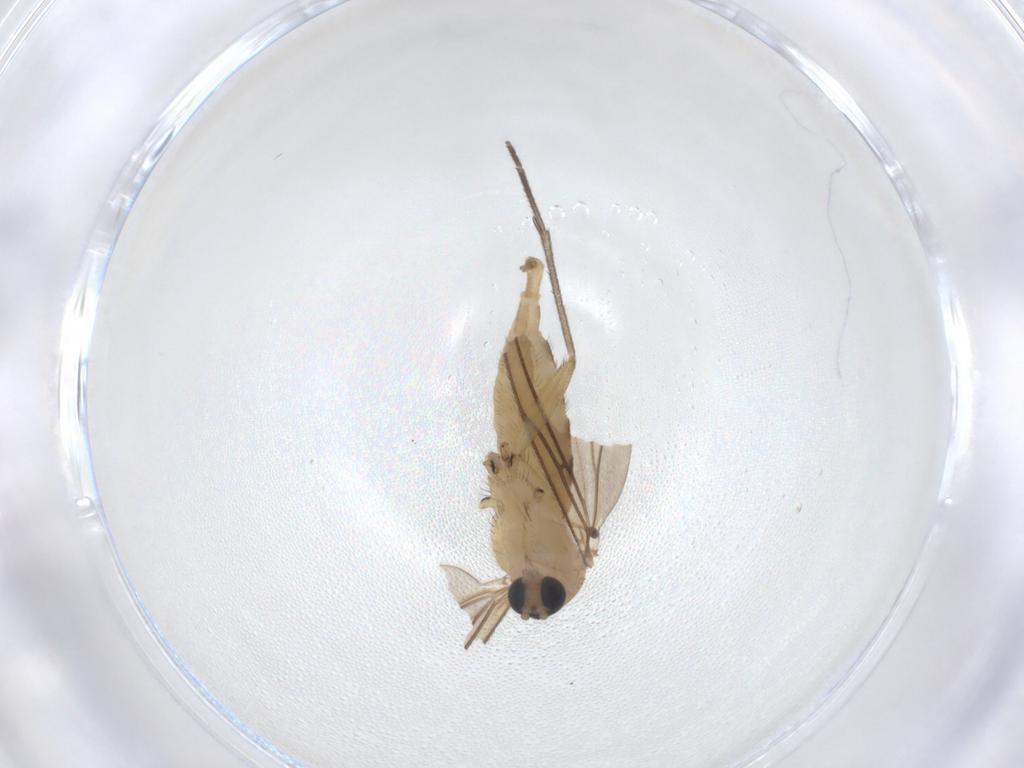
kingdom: Animalia
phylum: Arthropoda
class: Insecta
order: Diptera
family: Sciaridae
